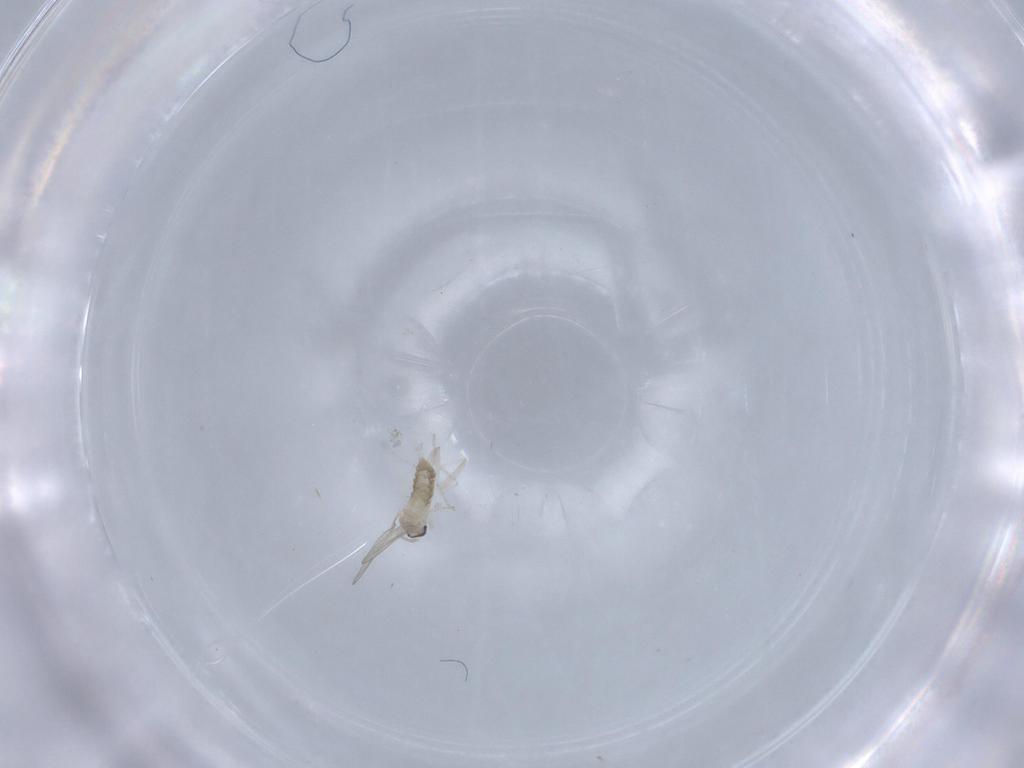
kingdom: Animalia
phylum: Arthropoda
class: Insecta
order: Diptera
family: Cecidomyiidae
